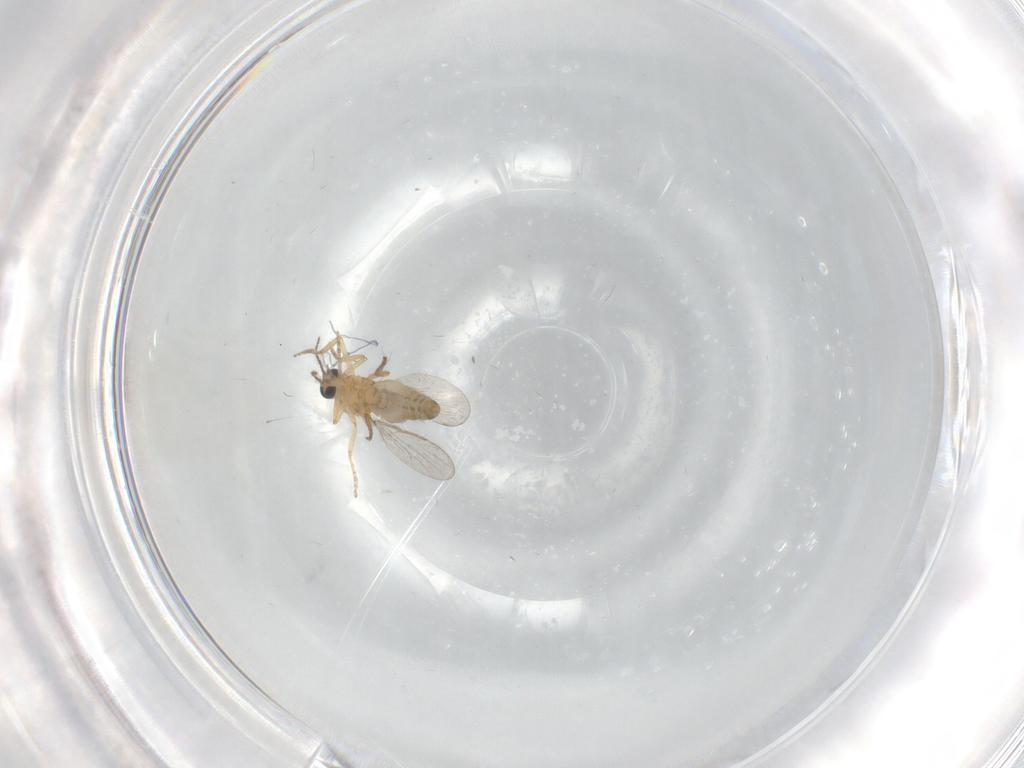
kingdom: Animalia
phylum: Arthropoda
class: Insecta
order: Diptera
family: Ceratopogonidae
